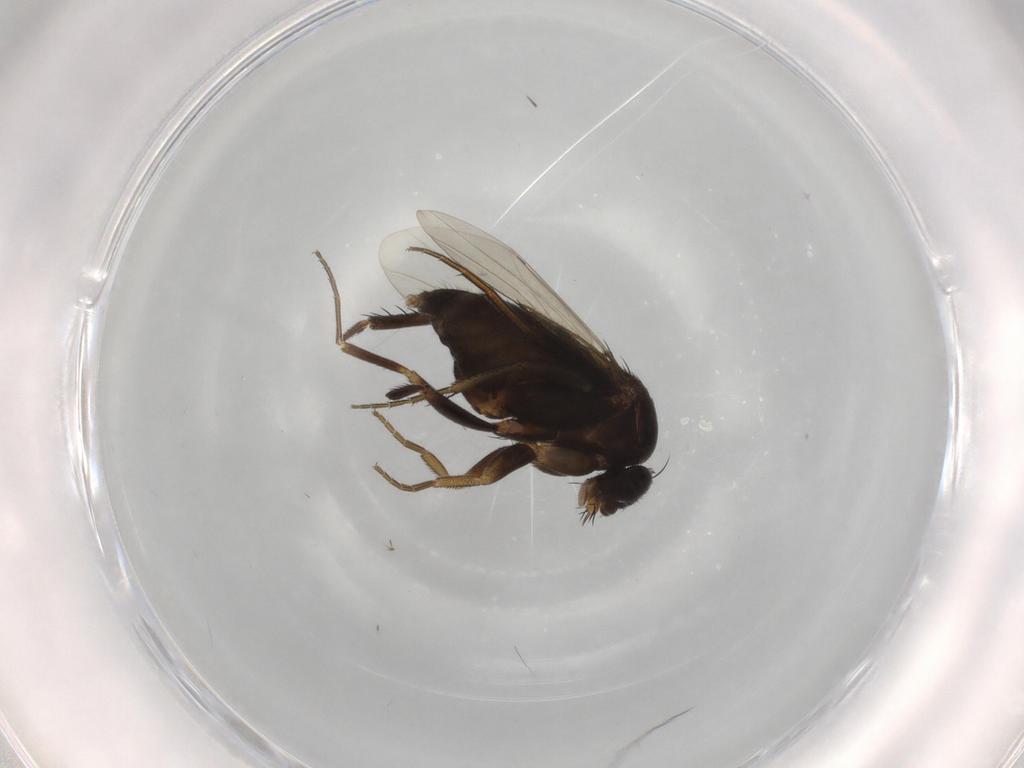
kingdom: Animalia
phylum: Arthropoda
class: Insecta
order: Diptera
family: Phoridae
